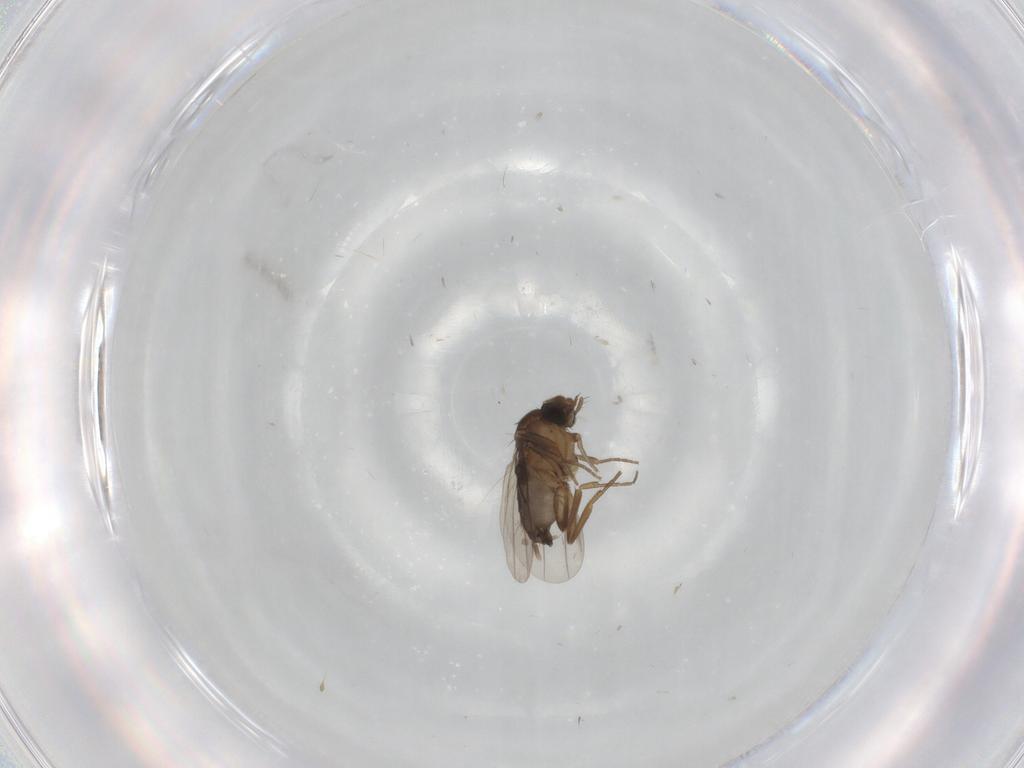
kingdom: Animalia
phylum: Arthropoda
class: Insecta
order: Diptera
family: Phoridae
